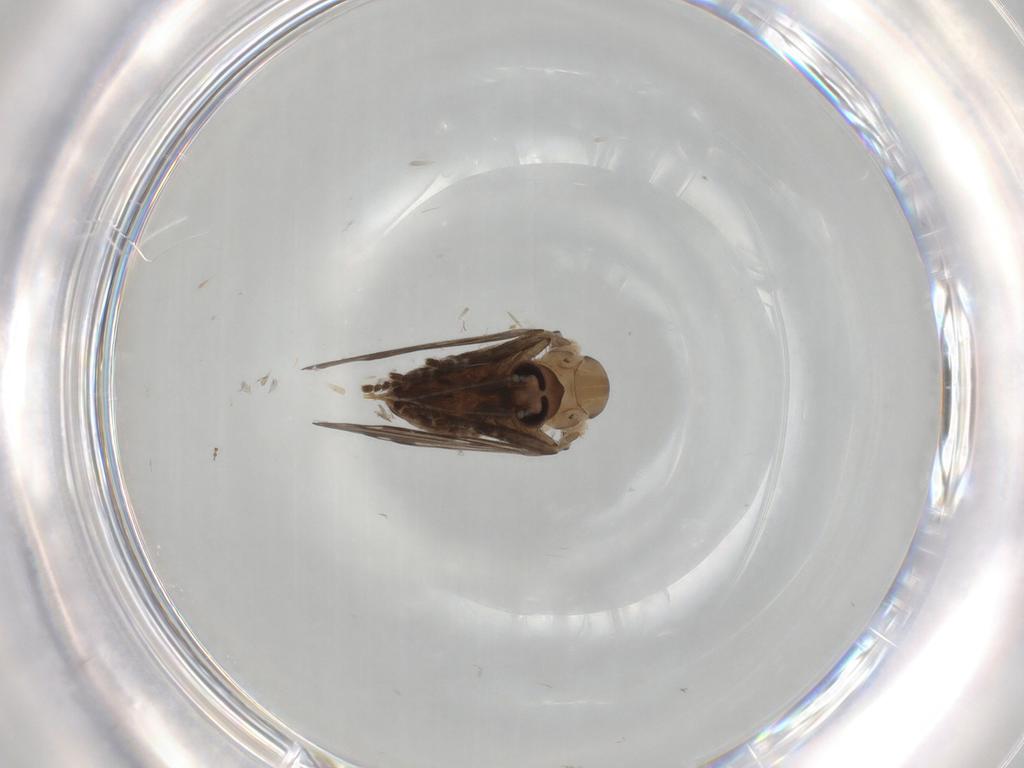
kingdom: Animalia
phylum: Arthropoda
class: Insecta
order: Diptera
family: Psychodidae
